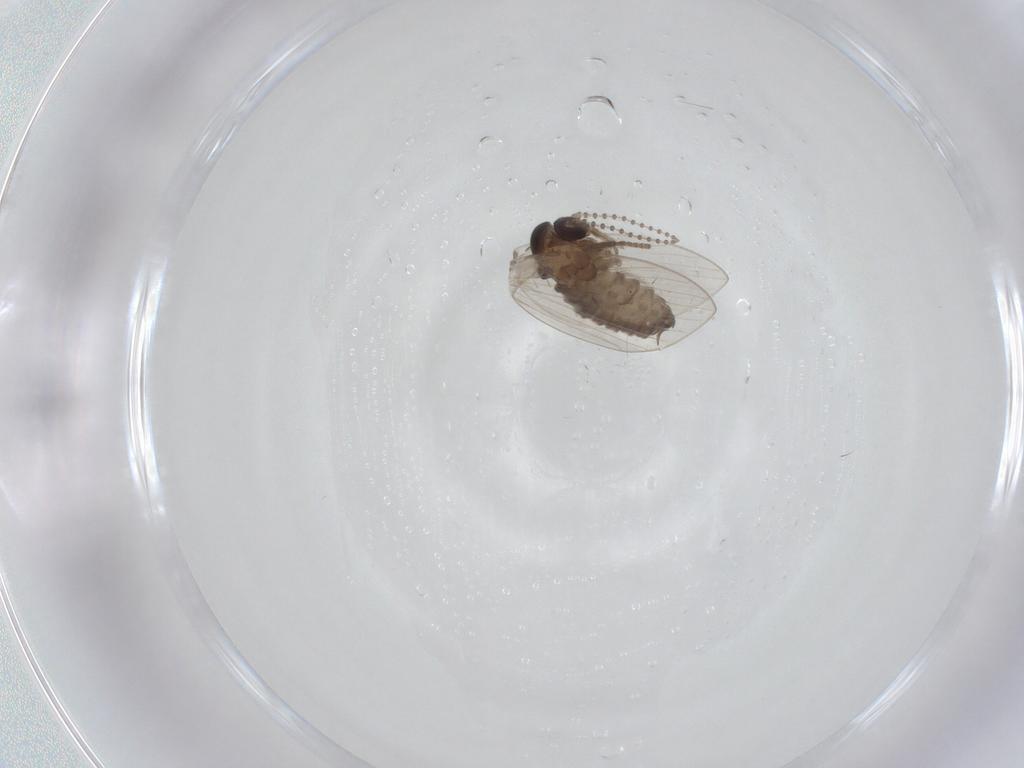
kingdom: Animalia
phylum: Arthropoda
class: Insecta
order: Diptera
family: Psychodidae
